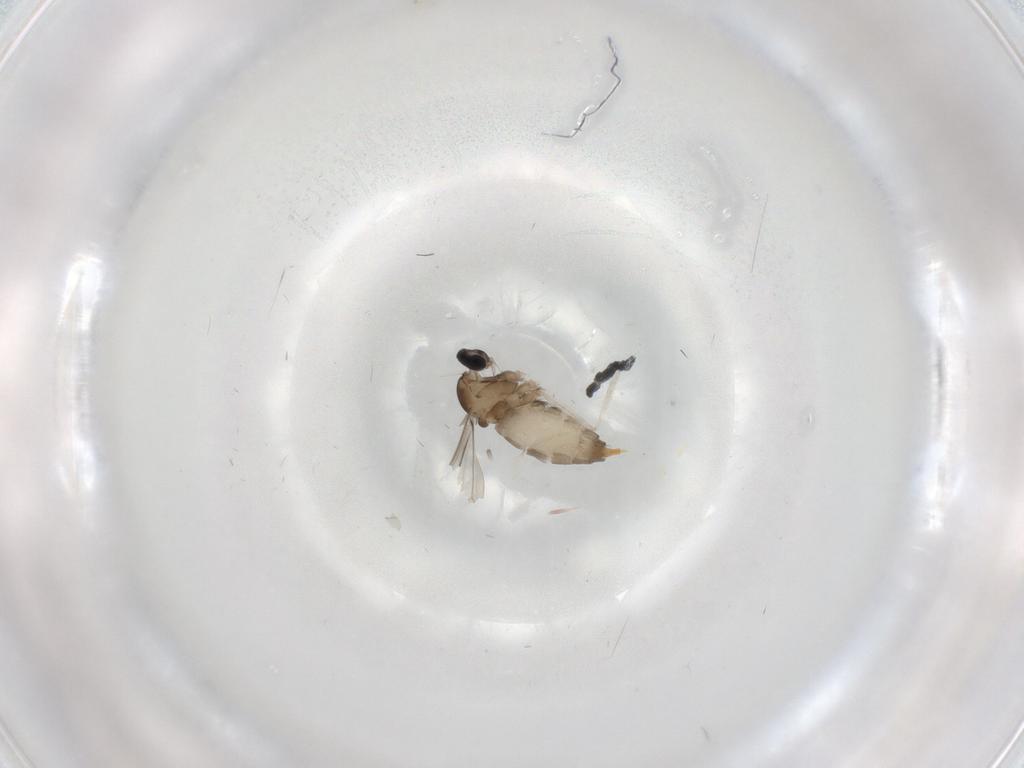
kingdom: Animalia
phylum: Arthropoda
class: Insecta
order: Diptera
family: Cecidomyiidae
